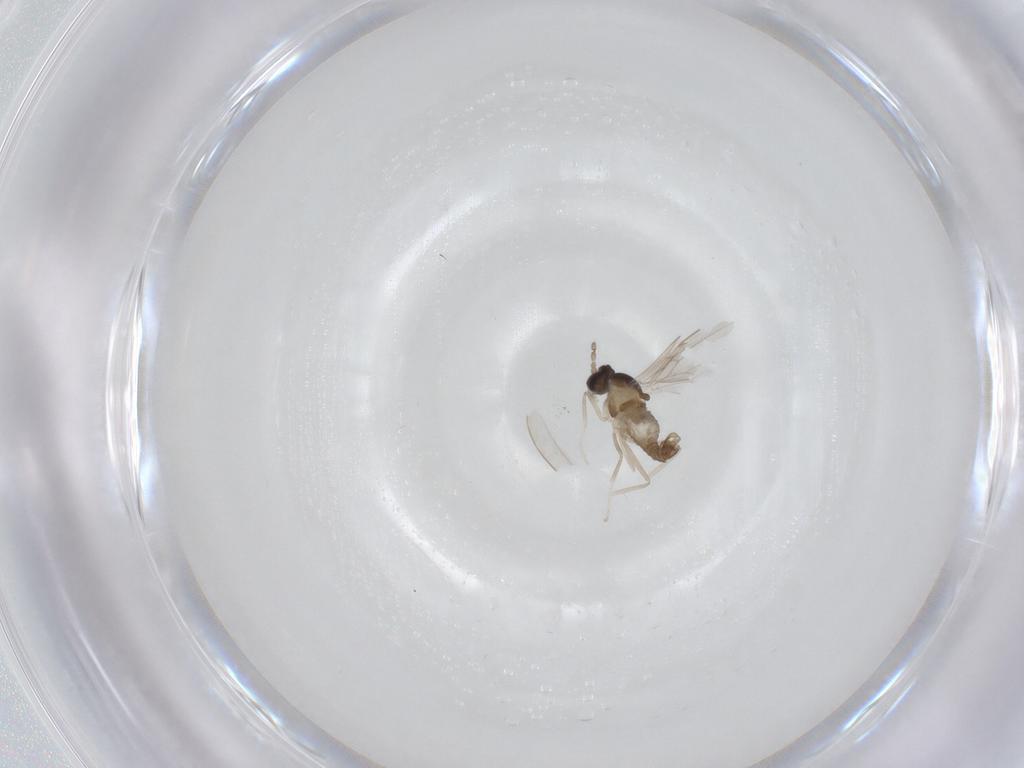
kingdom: Animalia
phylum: Arthropoda
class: Insecta
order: Diptera
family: Cecidomyiidae
